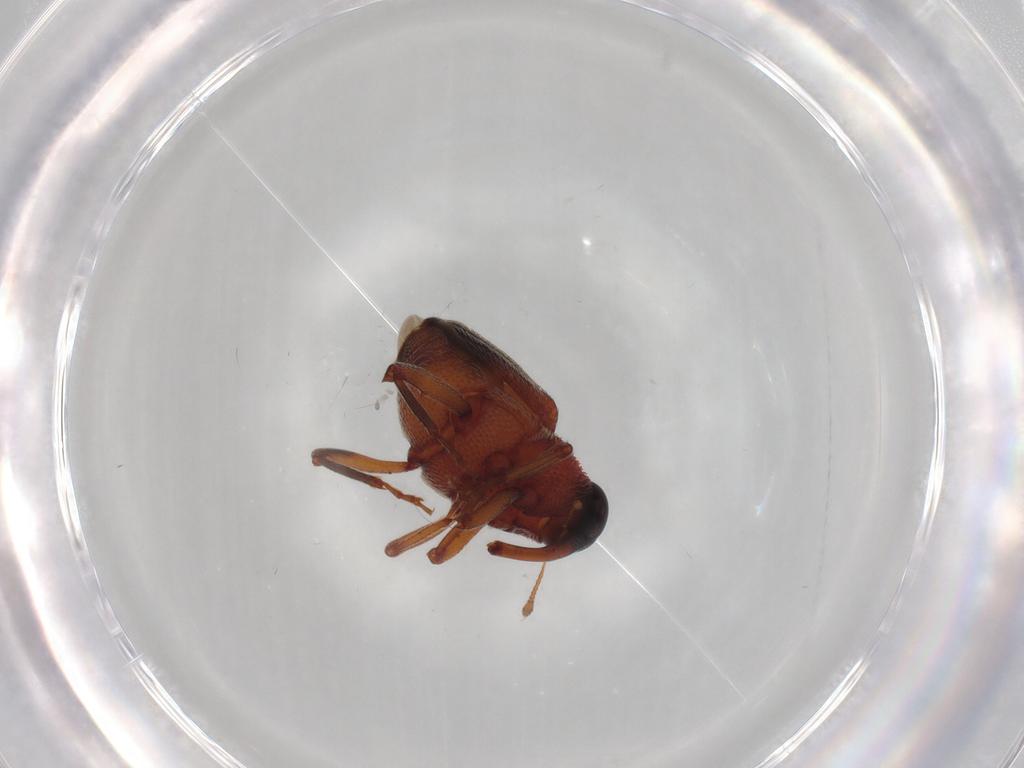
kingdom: Animalia
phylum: Arthropoda
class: Insecta
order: Coleoptera
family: Curculionidae
